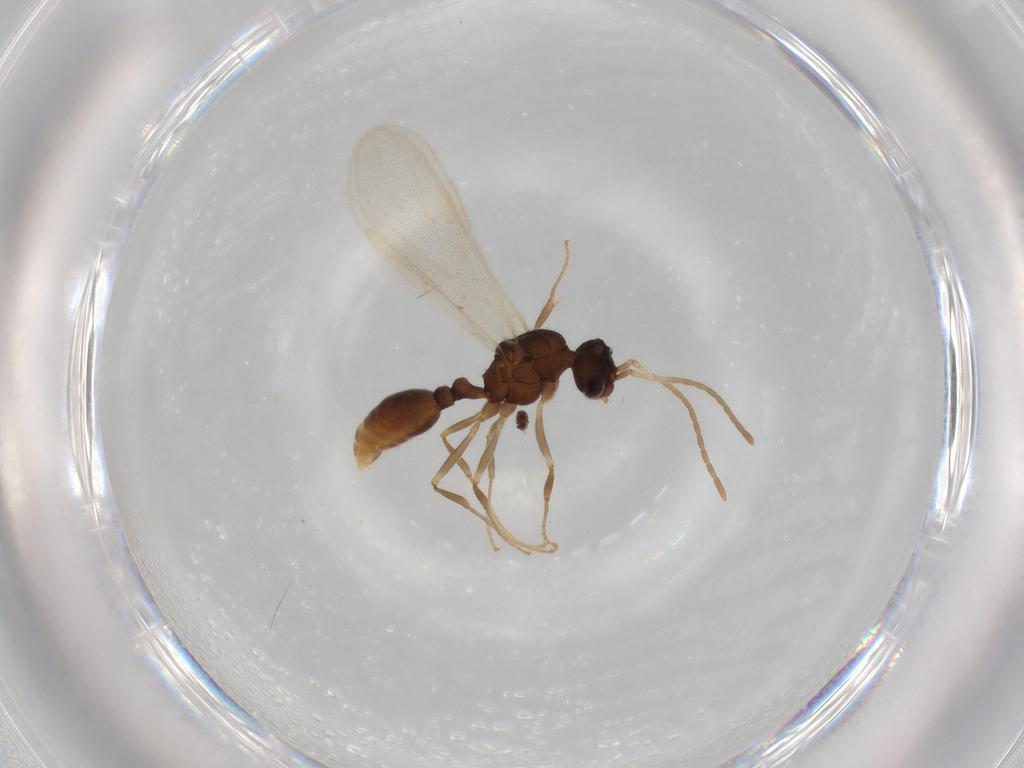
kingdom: Animalia
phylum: Arthropoda
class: Insecta
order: Hymenoptera
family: Formicidae
